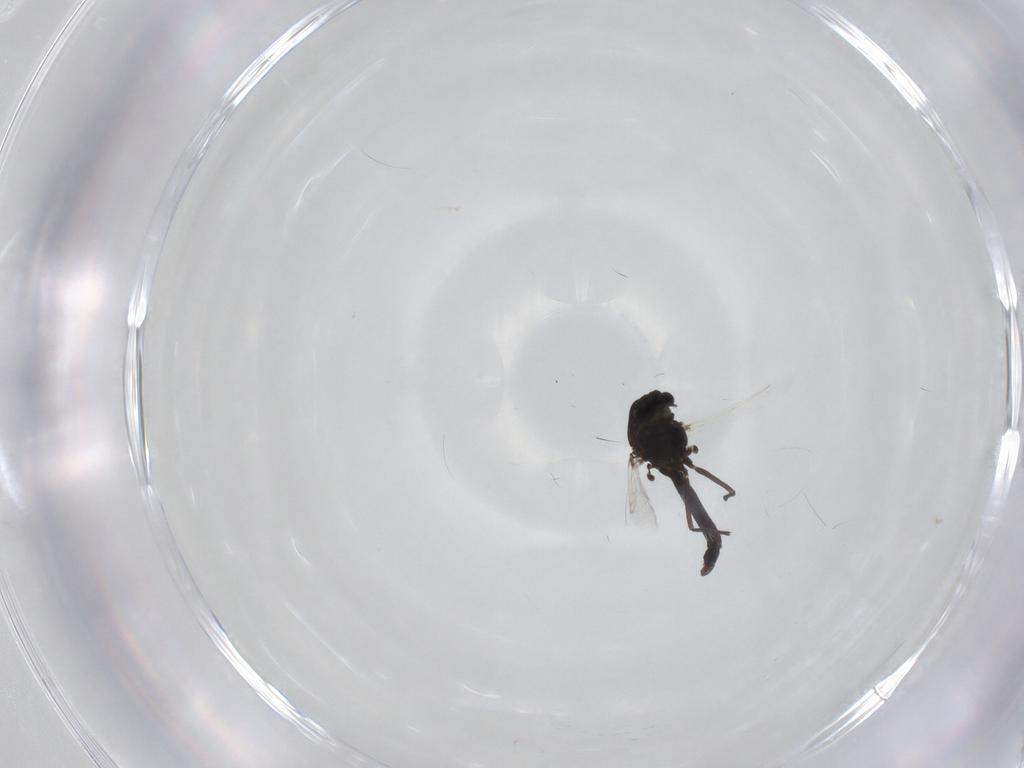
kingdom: Animalia
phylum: Arthropoda
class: Insecta
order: Diptera
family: Chironomidae
